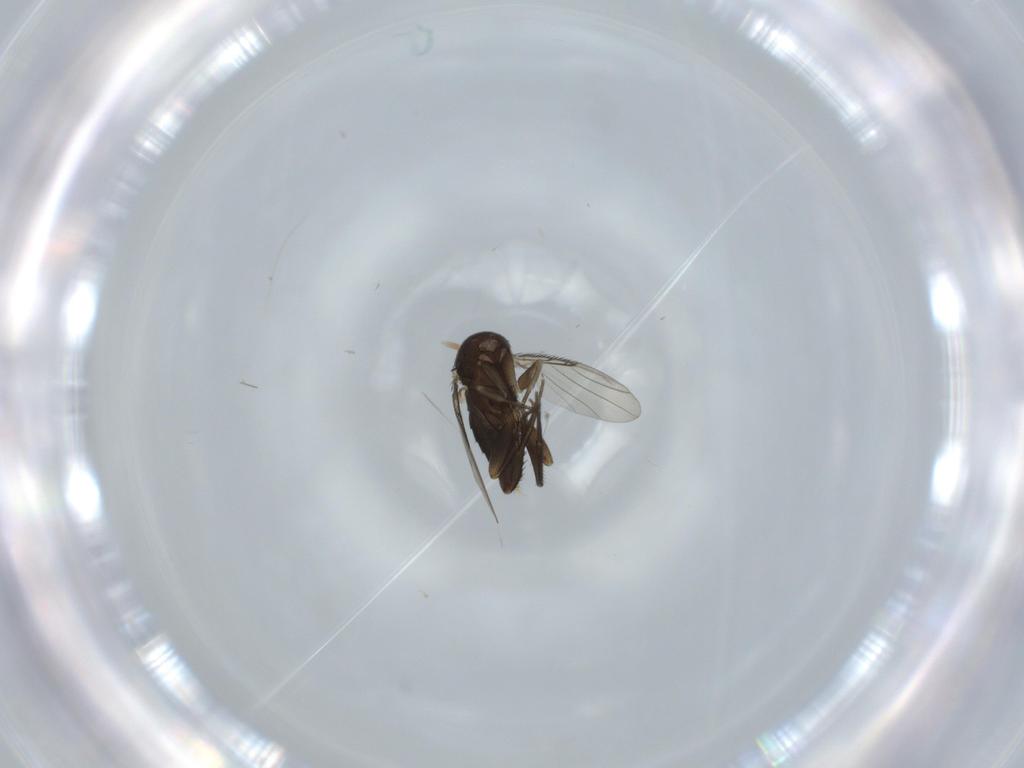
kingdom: Animalia
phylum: Arthropoda
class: Insecta
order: Diptera
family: Phoridae
